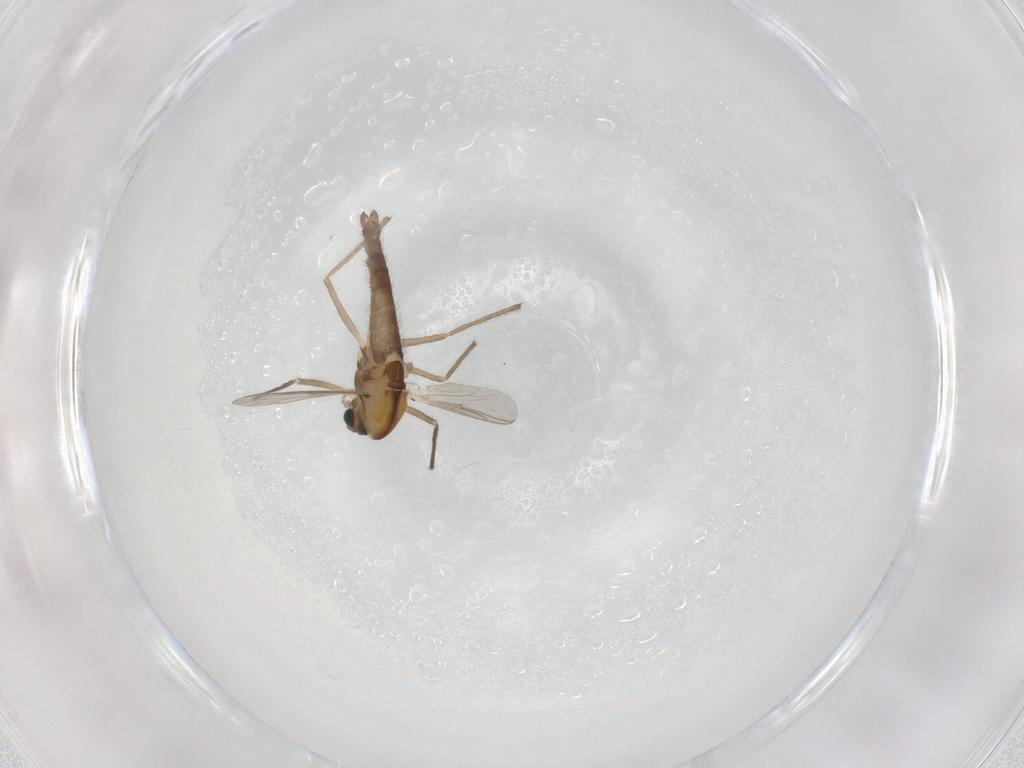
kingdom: Animalia
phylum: Arthropoda
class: Insecta
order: Diptera
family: Chironomidae
